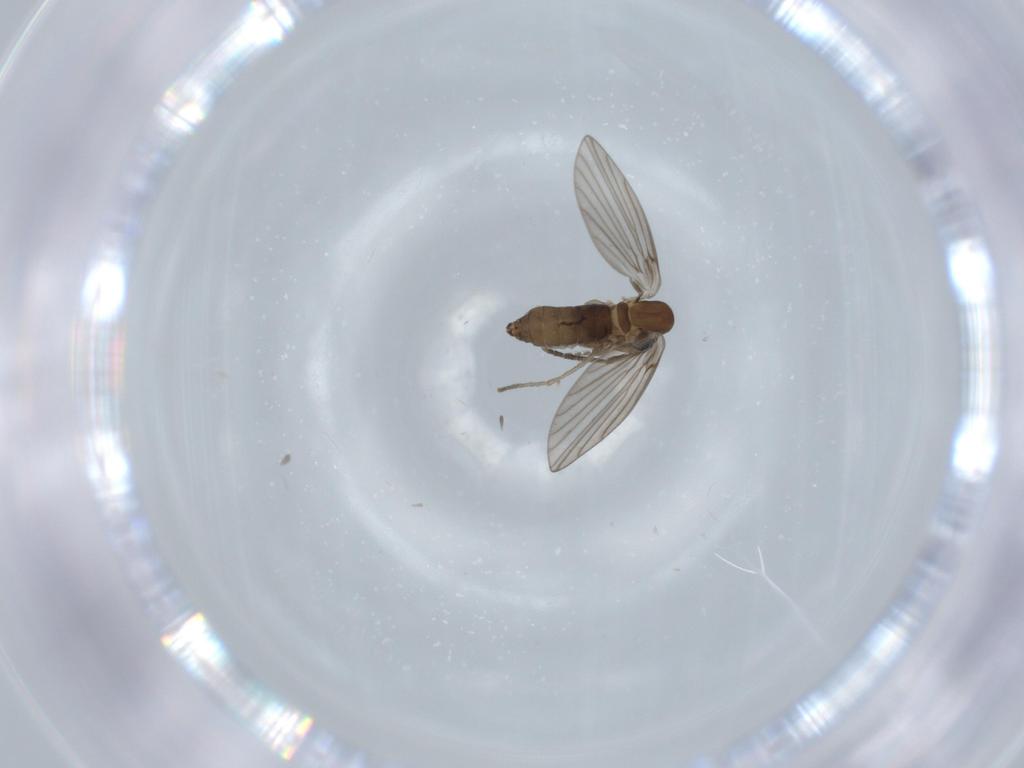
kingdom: Animalia
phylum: Arthropoda
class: Insecta
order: Diptera
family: Psychodidae
